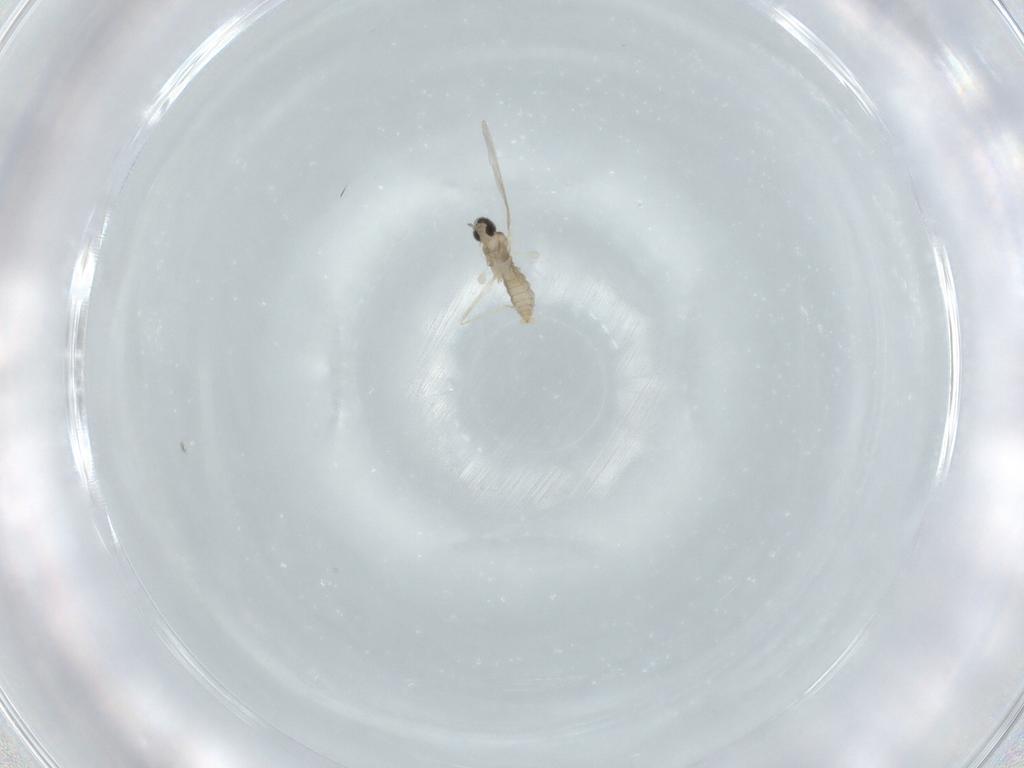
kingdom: Animalia
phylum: Arthropoda
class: Insecta
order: Diptera
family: Cecidomyiidae
